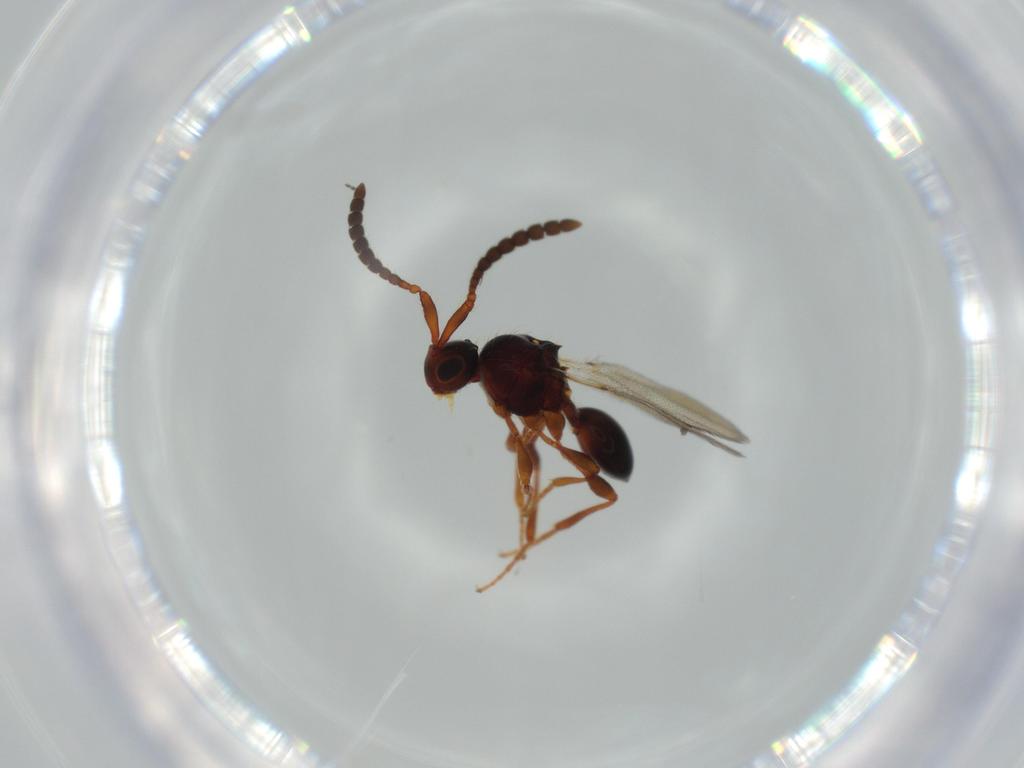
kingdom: Animalia
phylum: Arthropoda
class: Insecta
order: Hymenoptera
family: Diapriidae
